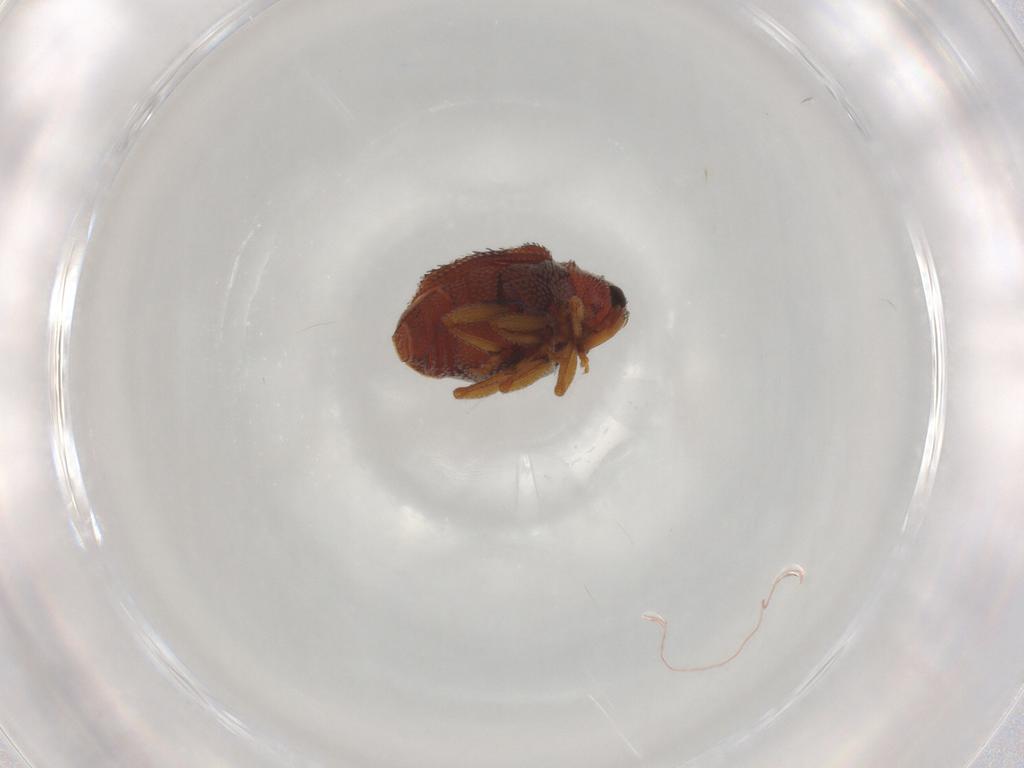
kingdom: Animalia
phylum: Arthropoda
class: Insecta
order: Coleoptera
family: Curculionidae
